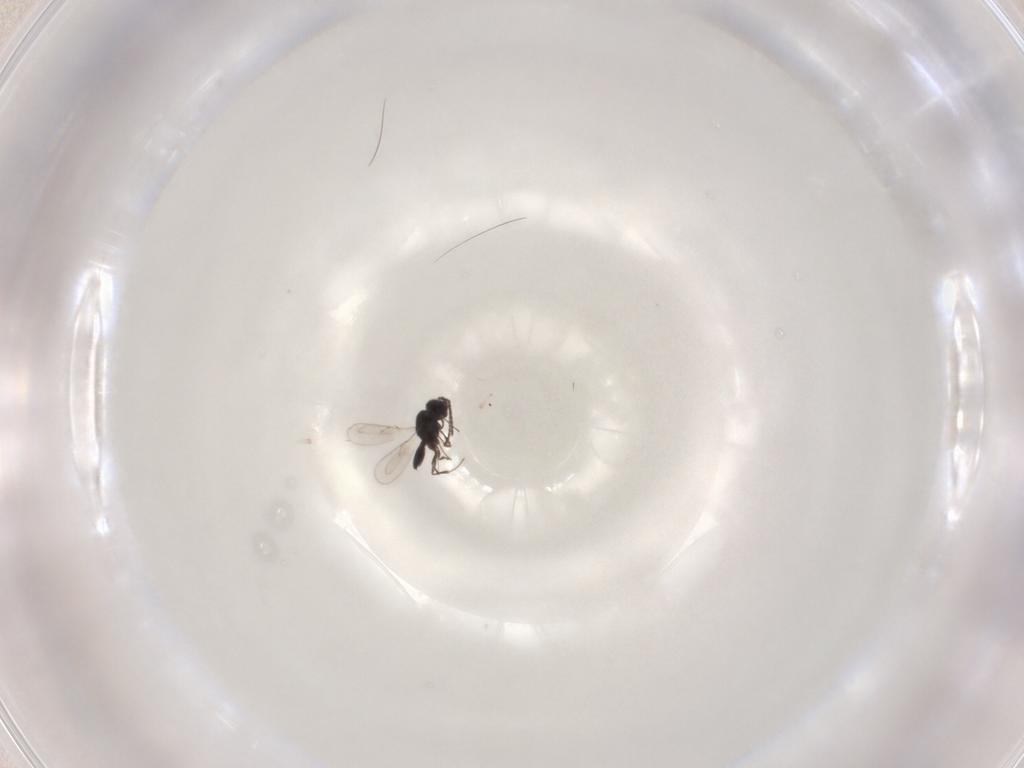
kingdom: Animalia
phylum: Arthropoda
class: Insecta
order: Hymenoptera
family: Scelionidae
